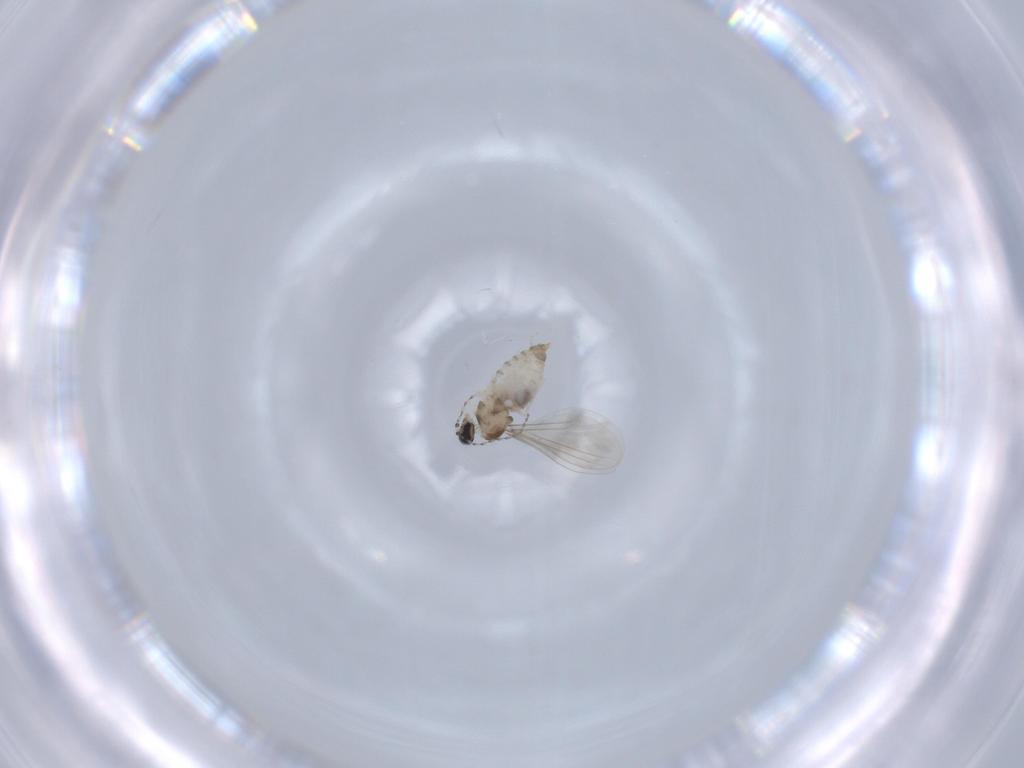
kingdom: Animalia
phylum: Arthropoda
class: Insecta
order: Diptera
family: Cecidomyiidae
